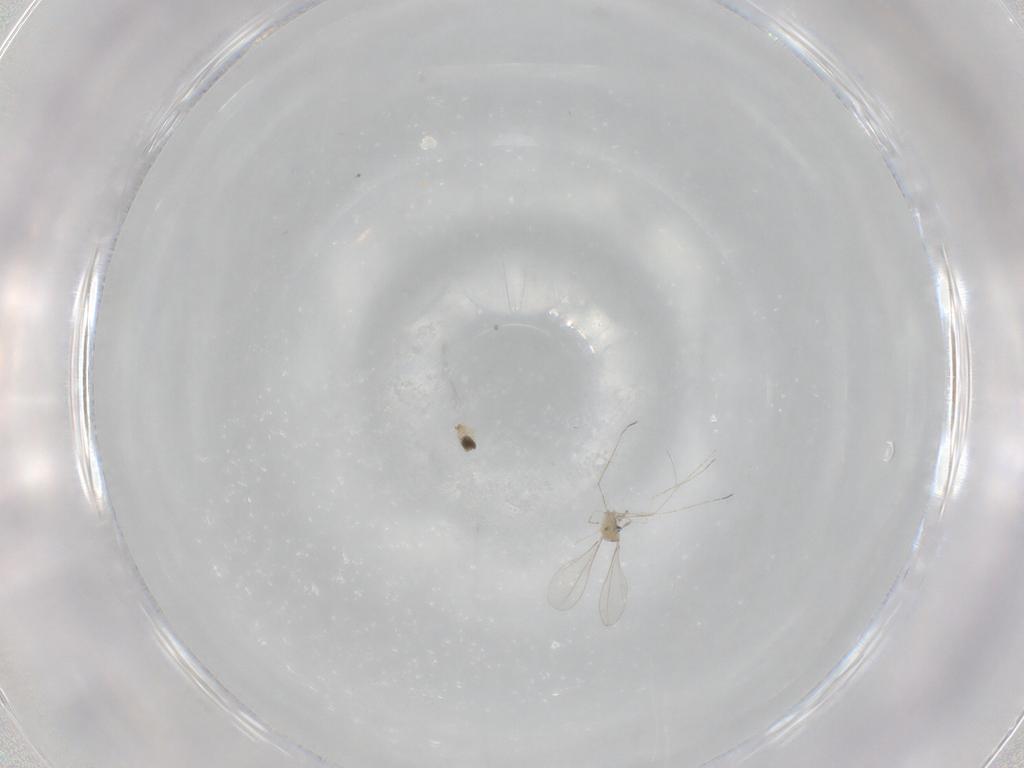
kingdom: Animalia
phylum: Arthropoda
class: Insecta
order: Diptera
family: Cecidomyiidae
